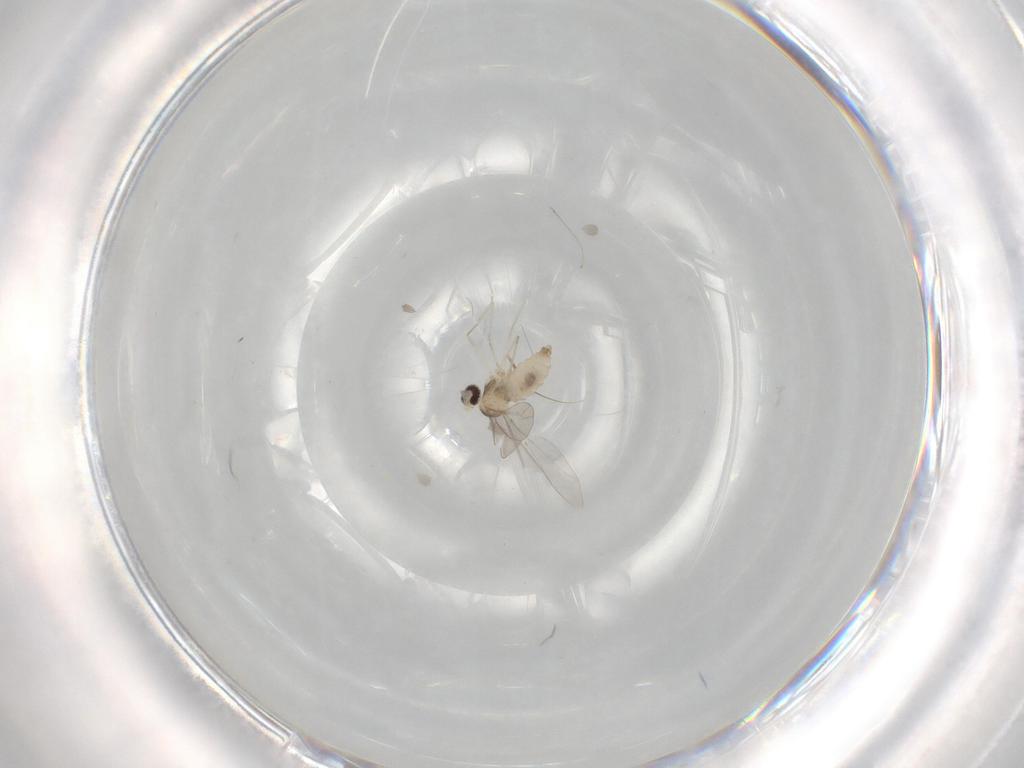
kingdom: Animalia
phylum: Arthropoda
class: Insecta
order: Diptera
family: Cecidomyiidae
